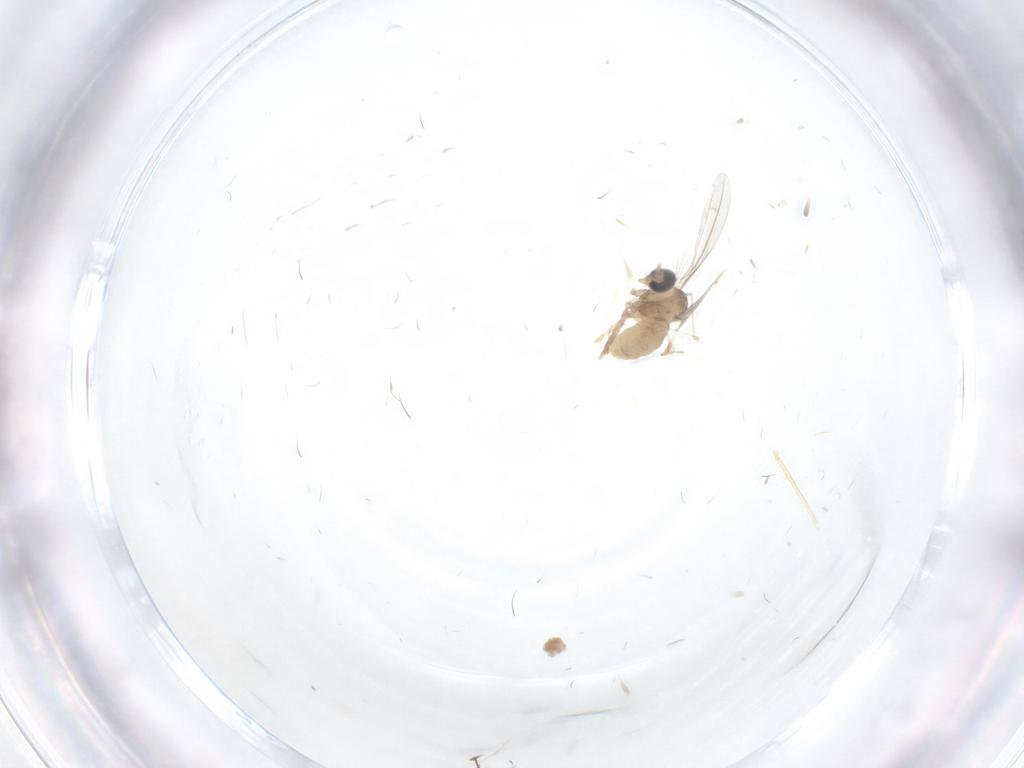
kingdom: Animalia
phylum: Arthropoda
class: Insecta
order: Diptera
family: Cecidomyiidae
